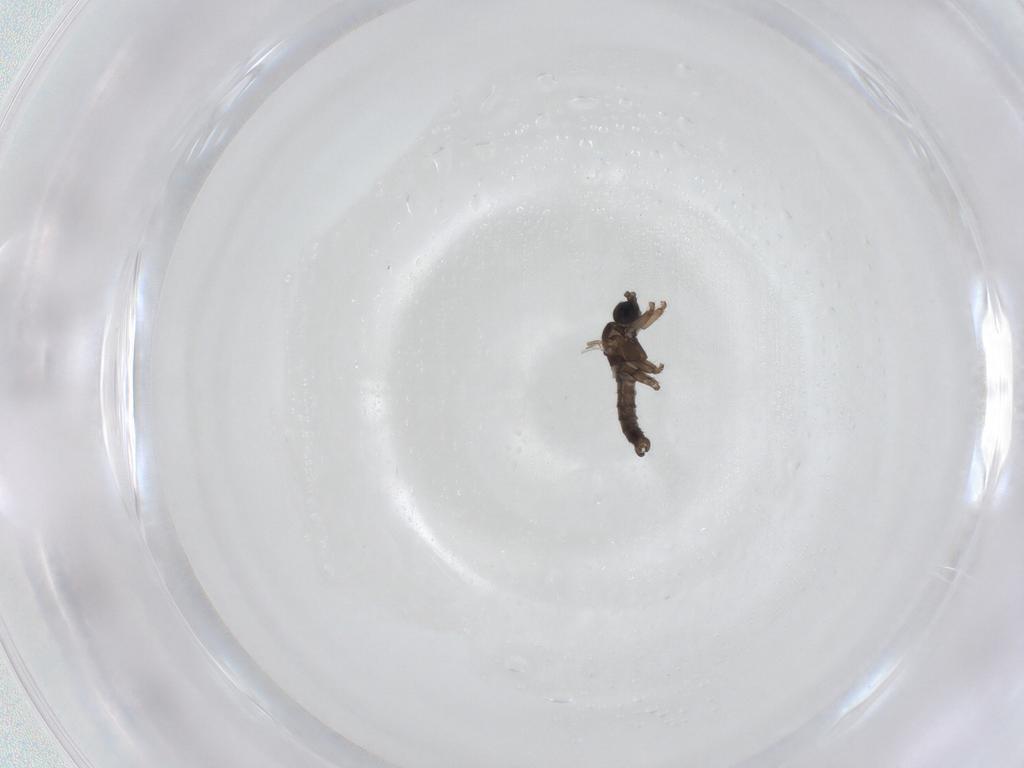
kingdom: Animalia
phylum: Arthropoda
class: Insecta
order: Diptera
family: Sciaridae
